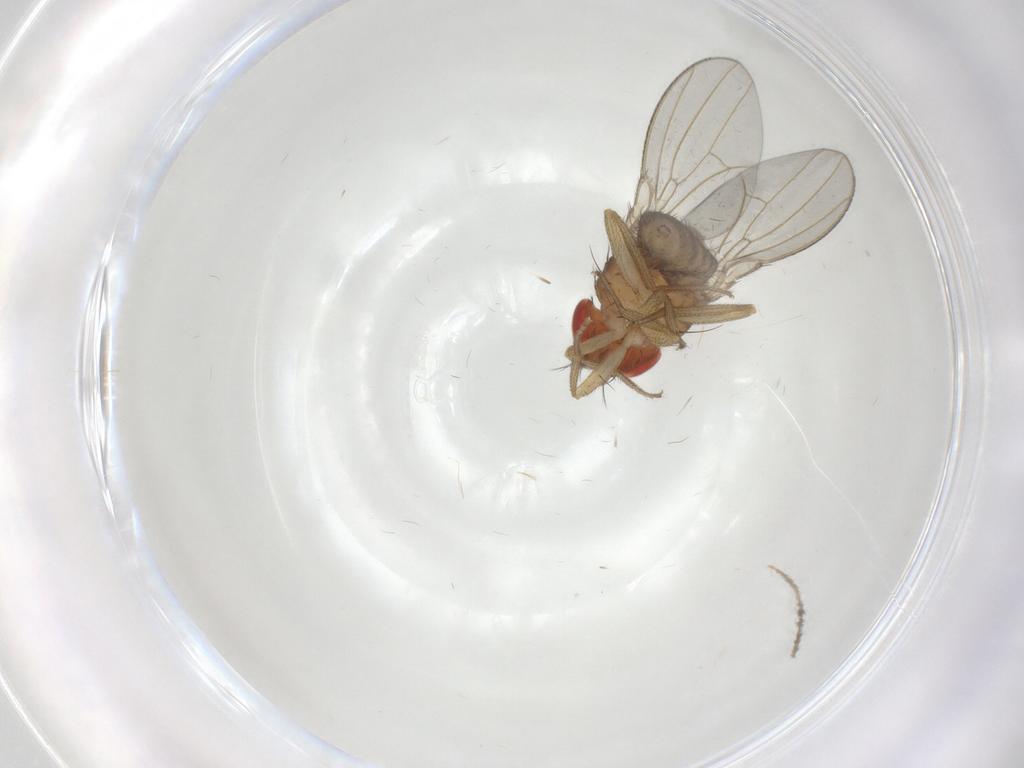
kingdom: Animalia
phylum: Arthropoda
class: Insecta
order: Diptera
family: Drosophilidae
